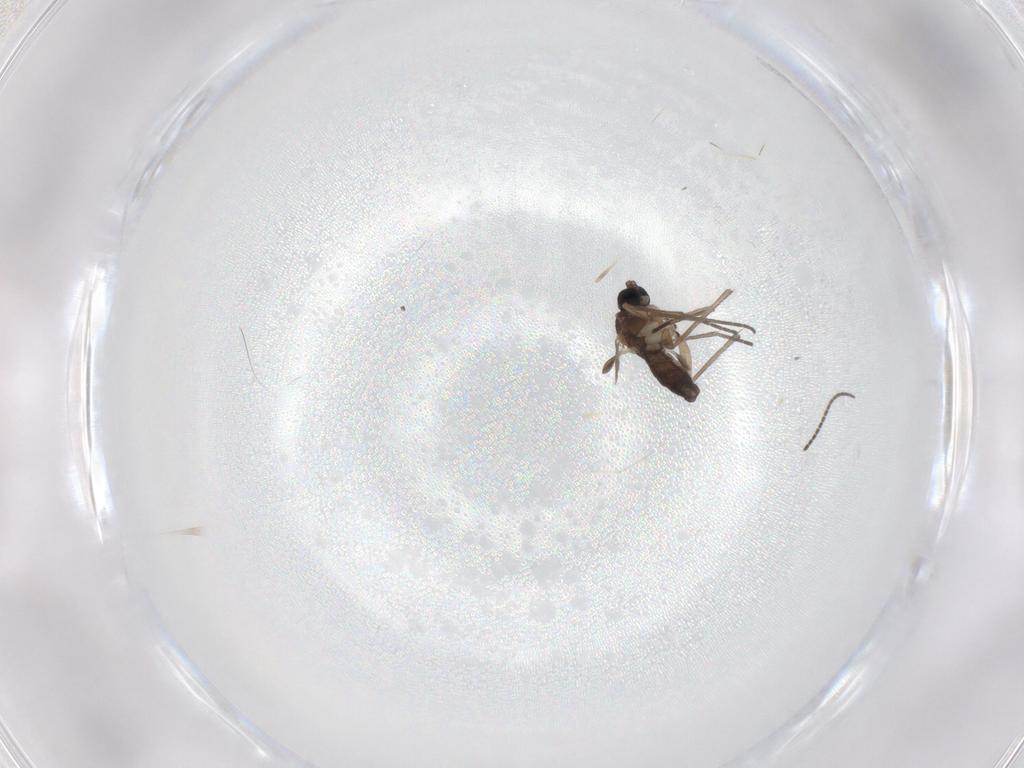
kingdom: Animalia
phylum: Arthropoda
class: Insecta
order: Diptera
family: Sciaridae
